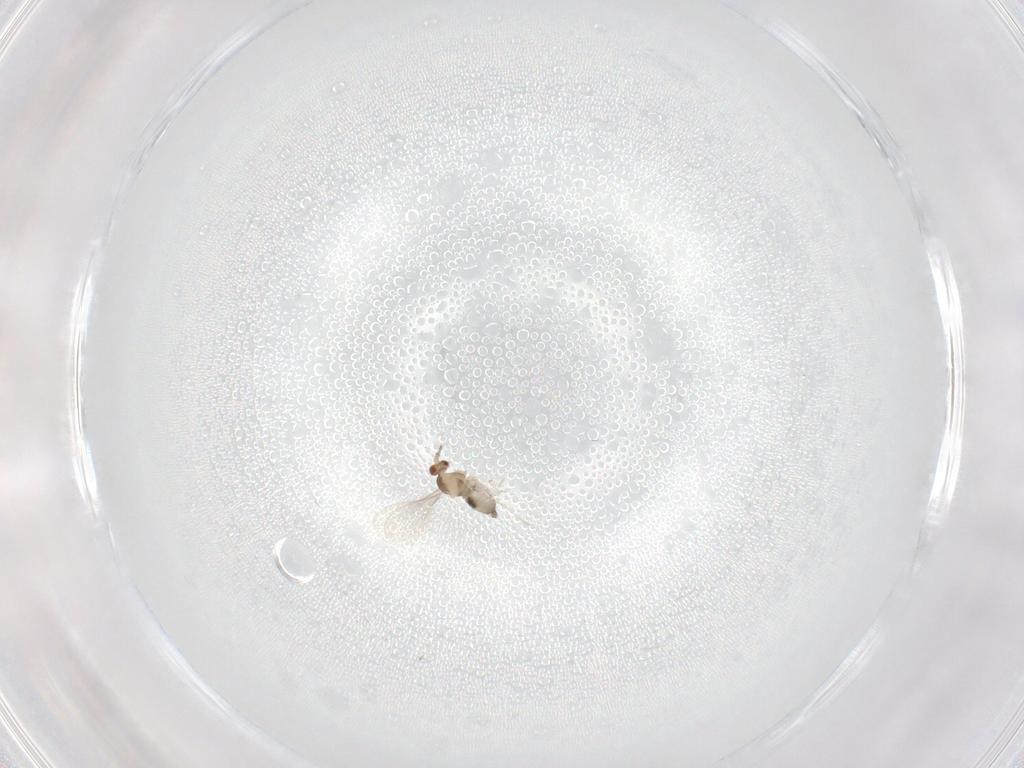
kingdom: Animalia
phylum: Arthropoda
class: Insecta
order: Diptera
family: Cecidomyiidae
